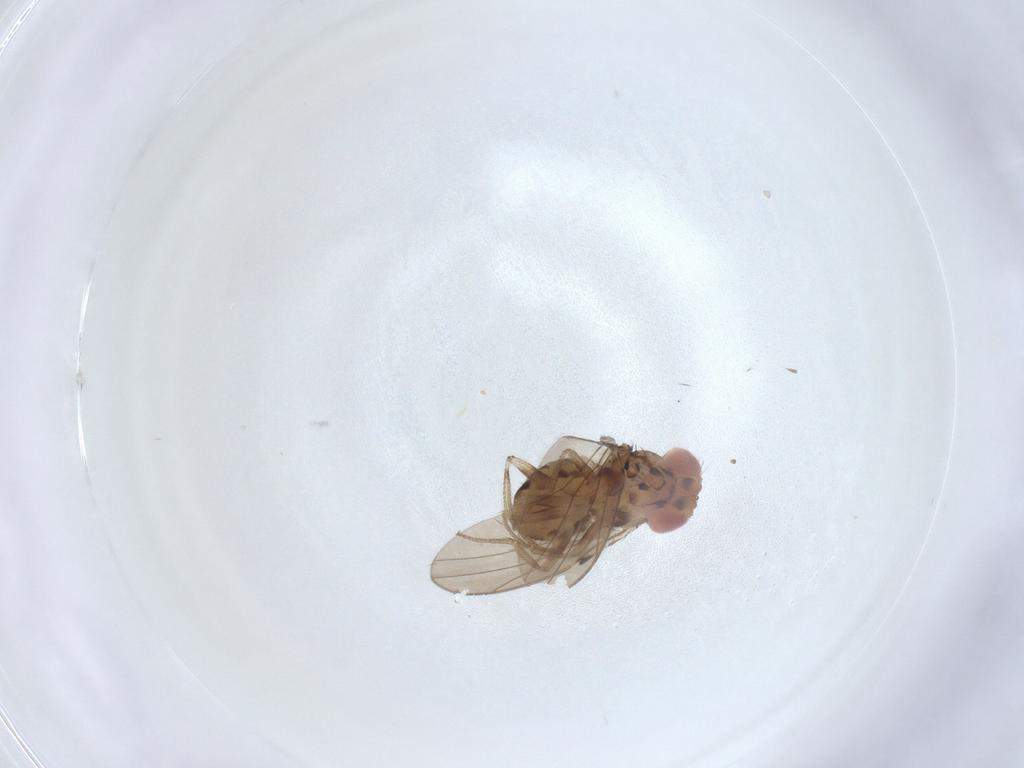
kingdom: Animalia
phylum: Arthropoda
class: Insecta
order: Diptera
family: Drosophilidae
